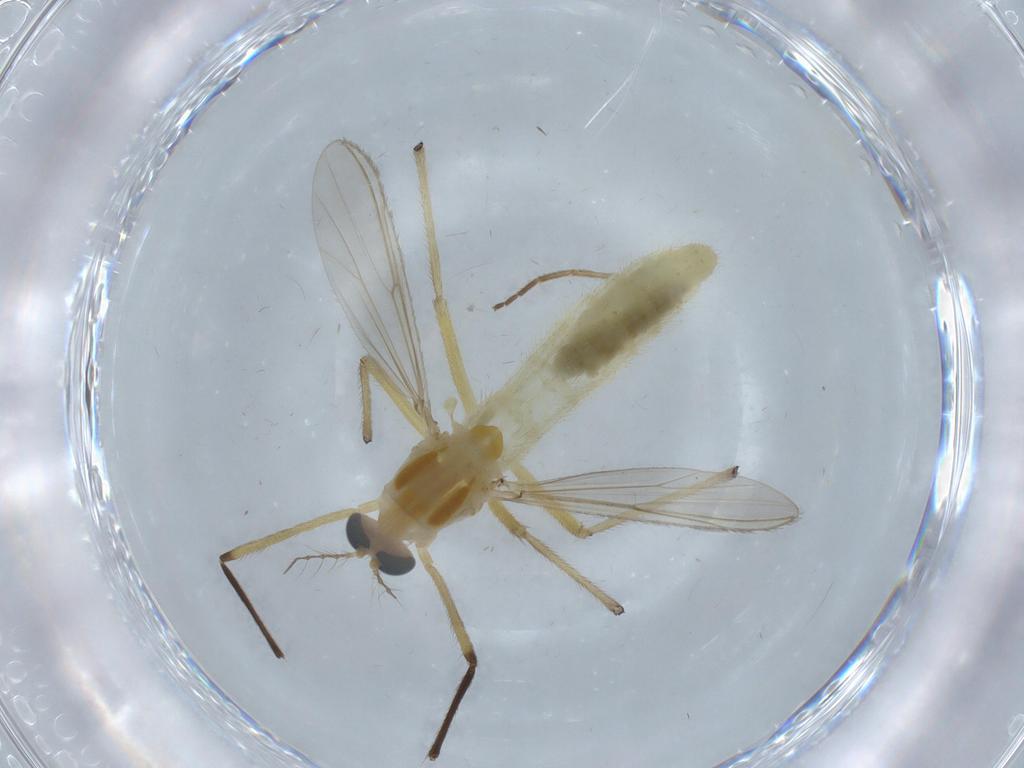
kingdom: Animalia
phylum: Arthropoda
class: Insecta
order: Diptera
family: Cecidomyiidae
